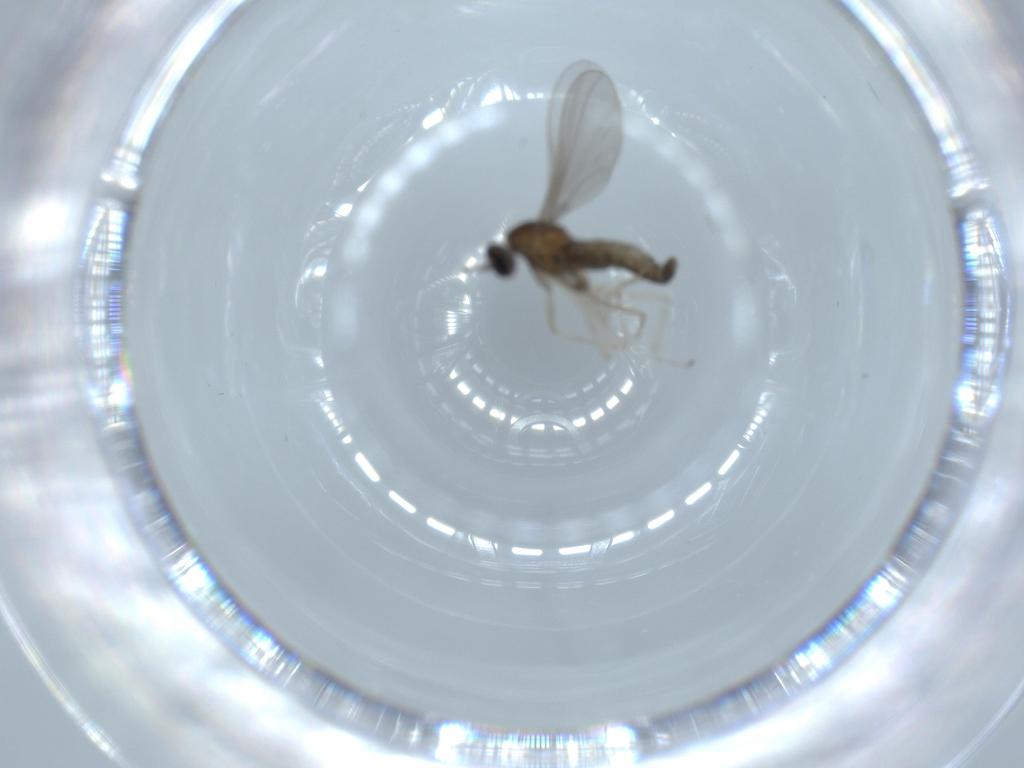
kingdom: Animalia
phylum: Arthropoda
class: Insecta
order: Diptera
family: Cecidomyiidae
